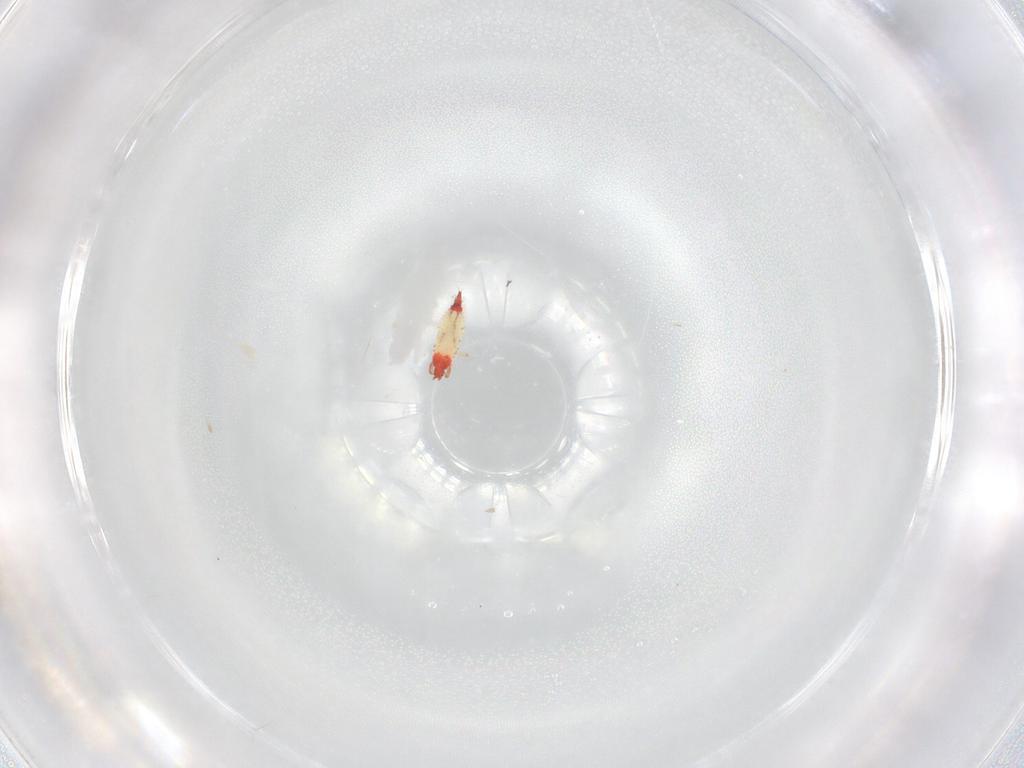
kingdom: Animalia
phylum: Arthropoda
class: Insecta
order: Thysanoptera
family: Phlaeothripidae
